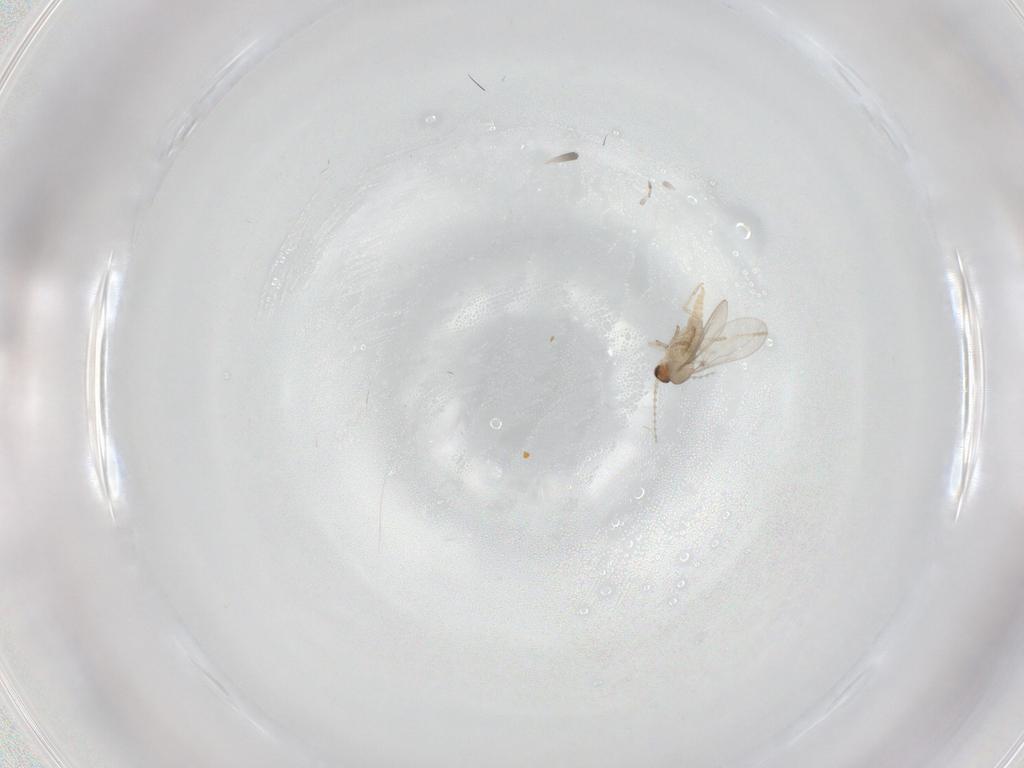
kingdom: Animalia
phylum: Arthropoda
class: Insecta
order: Diptera
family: Cecidomyiidae
